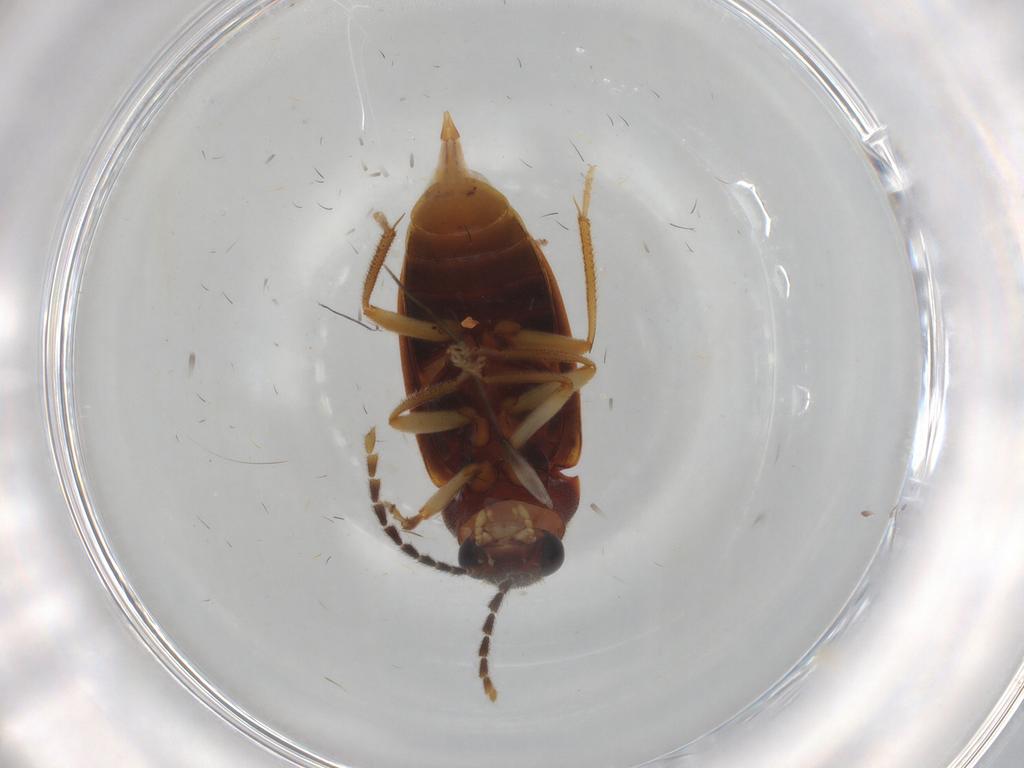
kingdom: Animalia
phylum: Arthropoda
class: Insecta
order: Coleoptera
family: Ptilodactylidae
